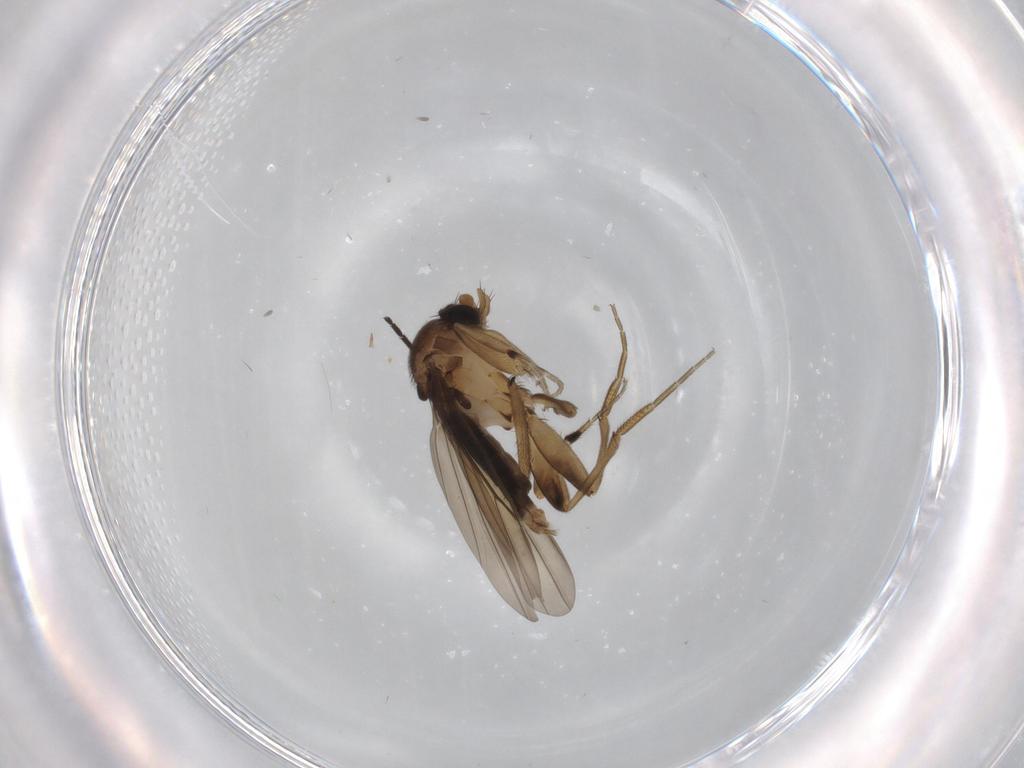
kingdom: Animalia
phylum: Arthropoda
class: Insecta
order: Diptera
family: Phoridae
